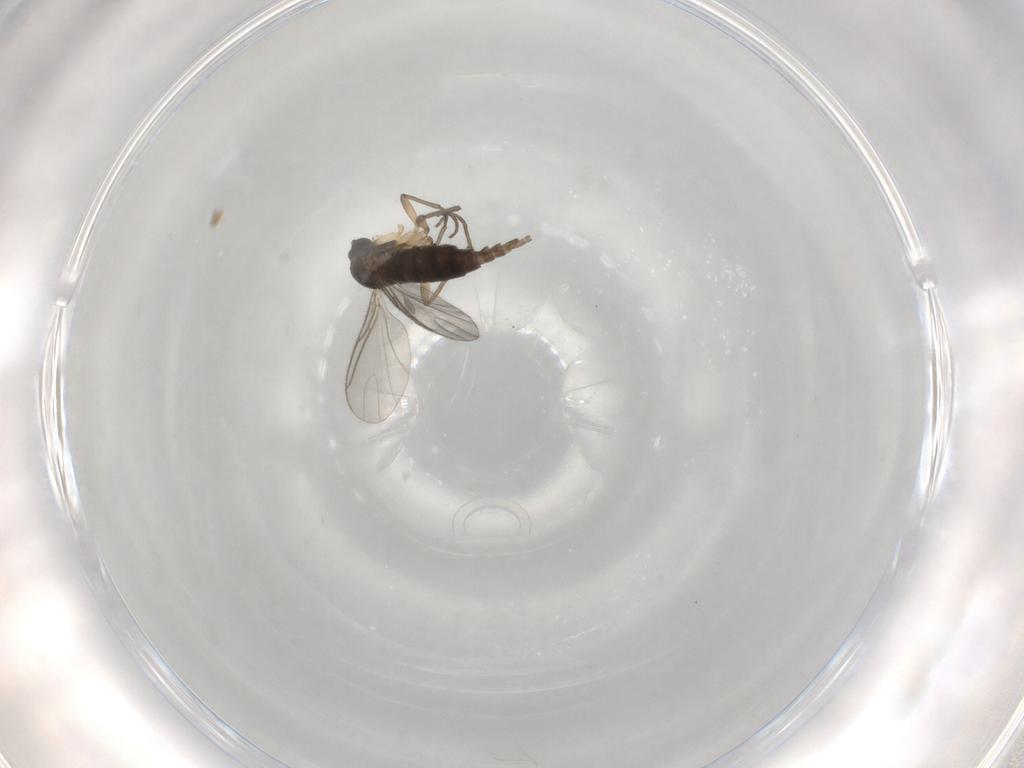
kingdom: Animalia
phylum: Arthropoda
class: Insecta
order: Diptera
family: Sciaridae
